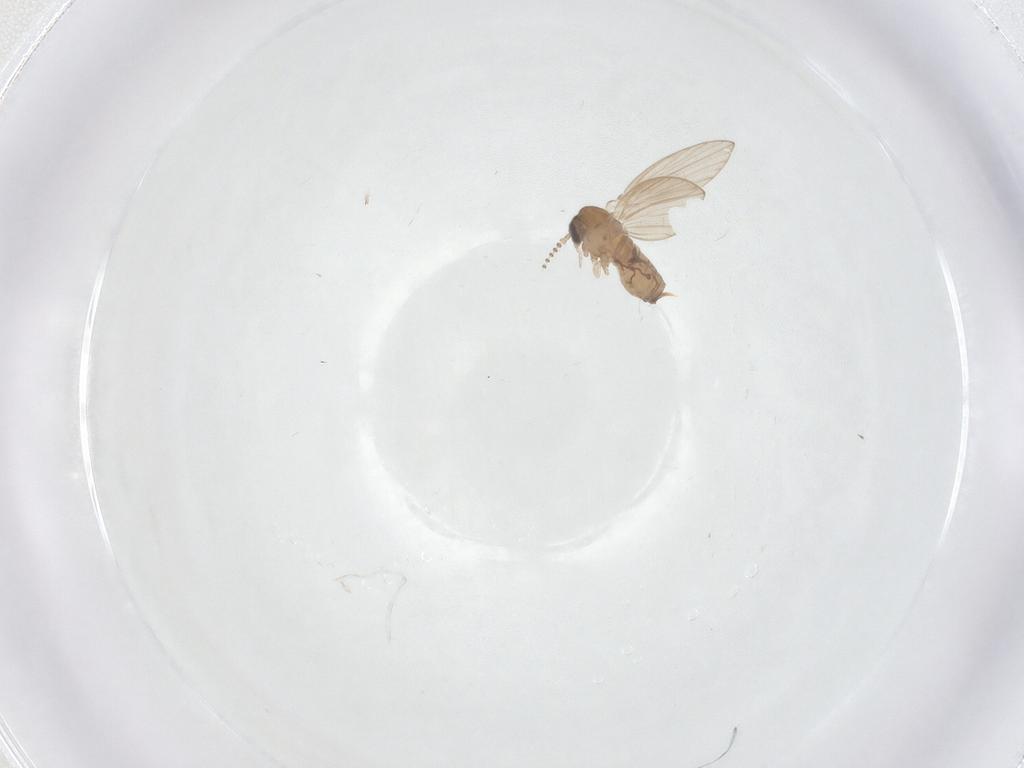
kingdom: Animalia
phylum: Arthropoda
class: Insecta
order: Diptera
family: Psychodidae
